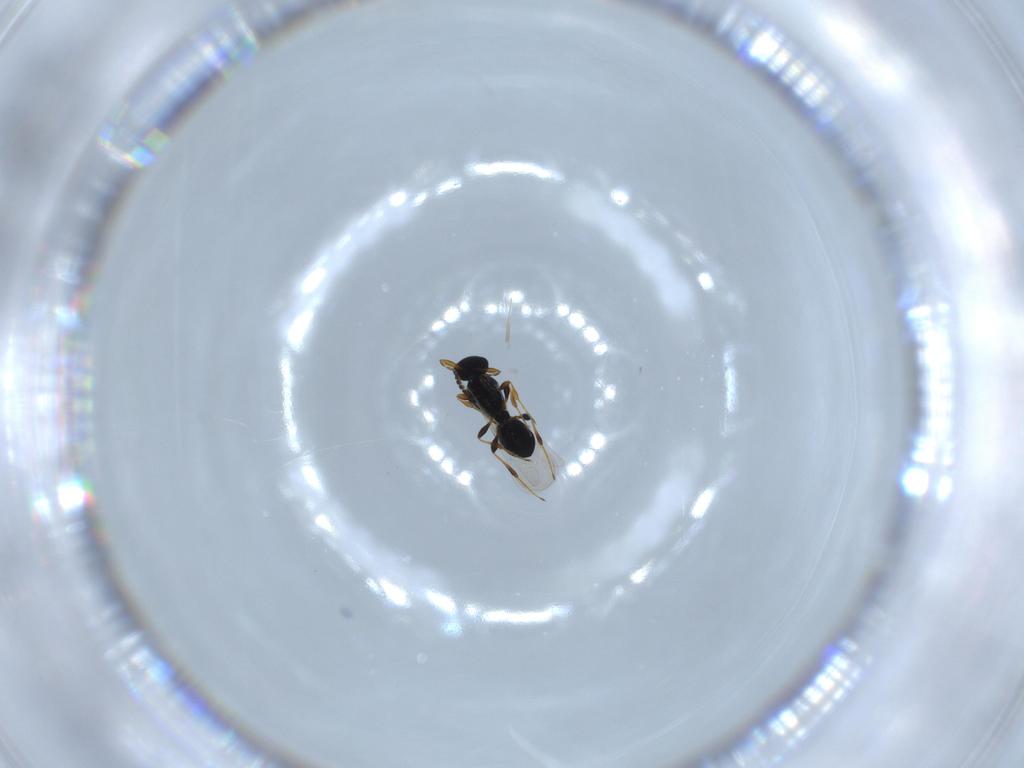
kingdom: Animalia
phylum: Arthropoda
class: Insecta
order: Hymenoptera
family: Platygastridae
